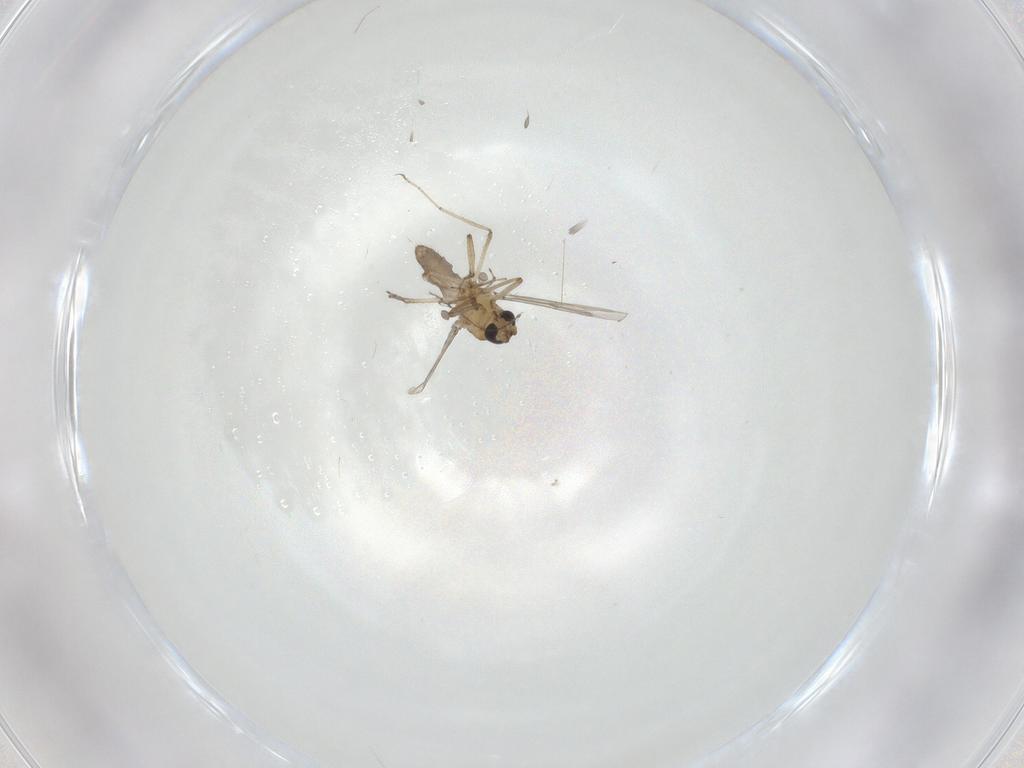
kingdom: Animalia
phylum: Arthropoda
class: Insecta
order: Diptera
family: Ceratopogonidae
